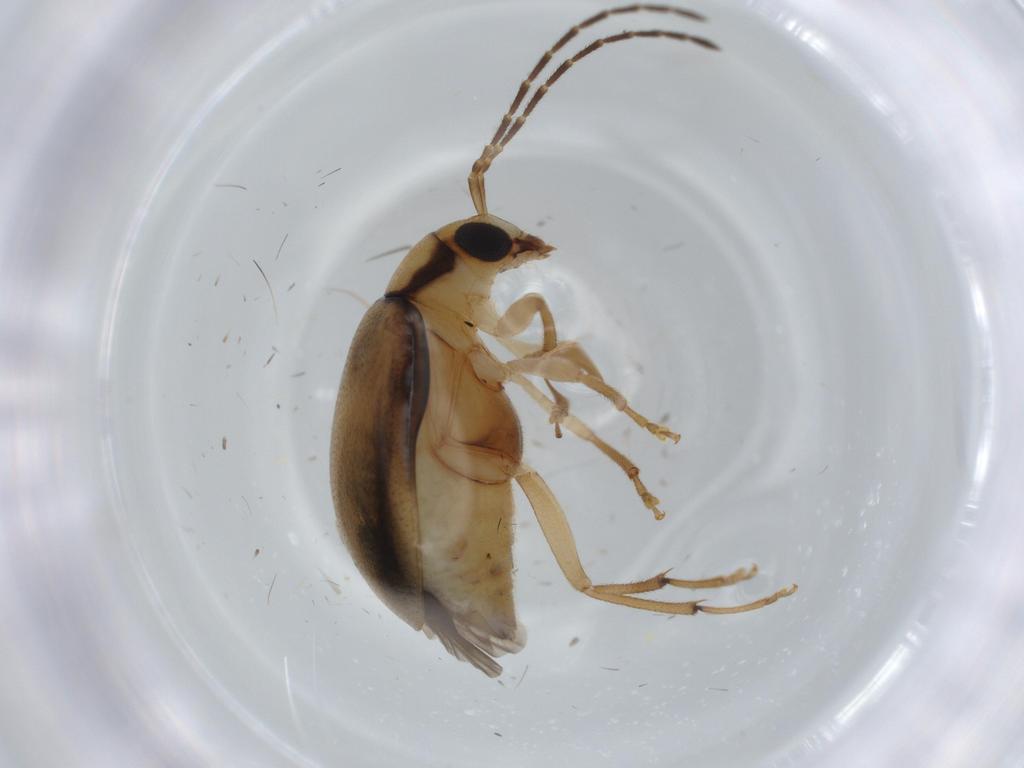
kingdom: Animalia
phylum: Arthropoda
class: Insecta
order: Coleoptera
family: Chrysomelidae
